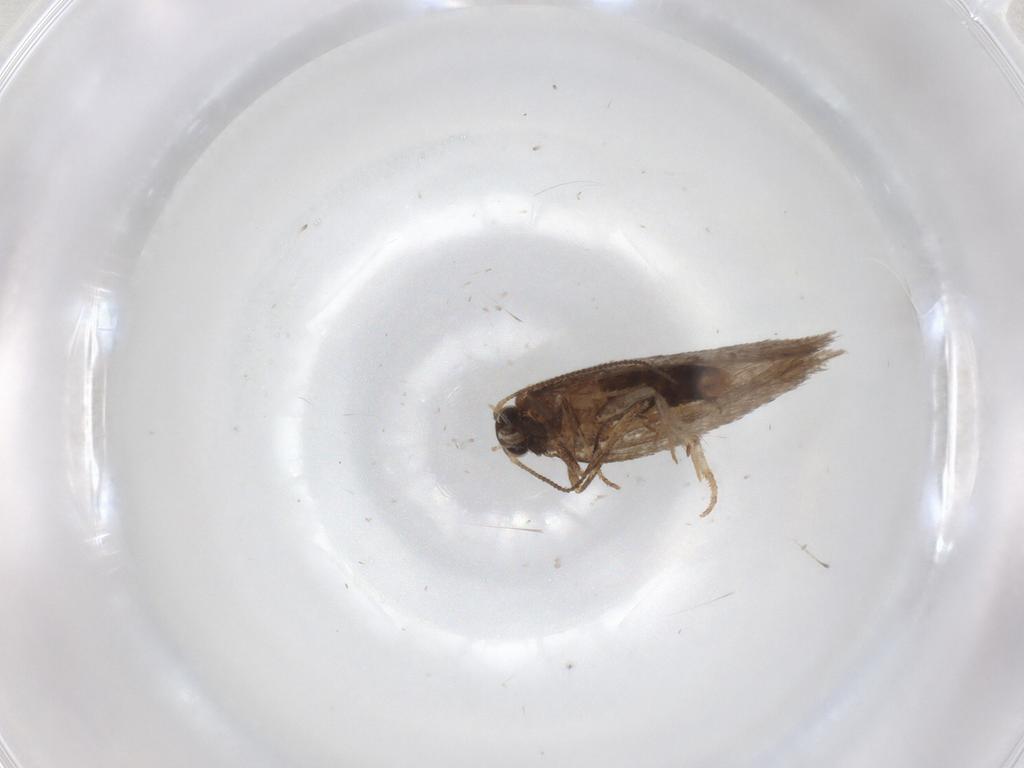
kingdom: Animalia
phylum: Arthropoda
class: Insecta
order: Lepidoptera
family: Nepticulidae
